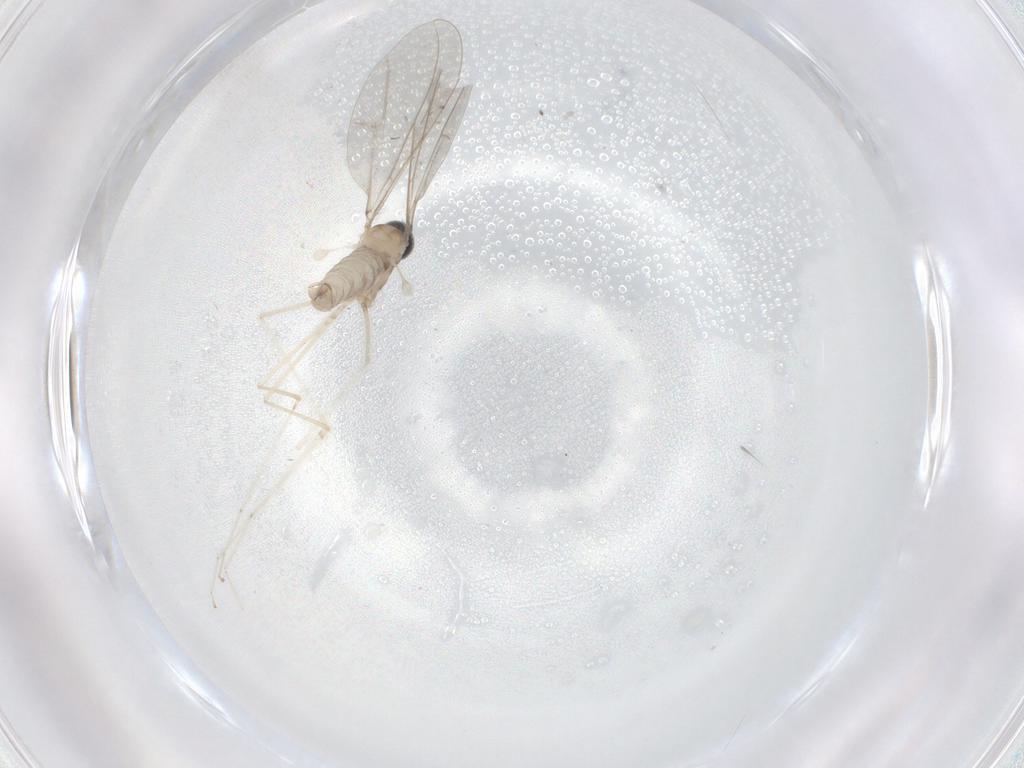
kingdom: Animalia
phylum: Arthropoda
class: Insecta
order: Diptera
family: Cecidomyiidae
